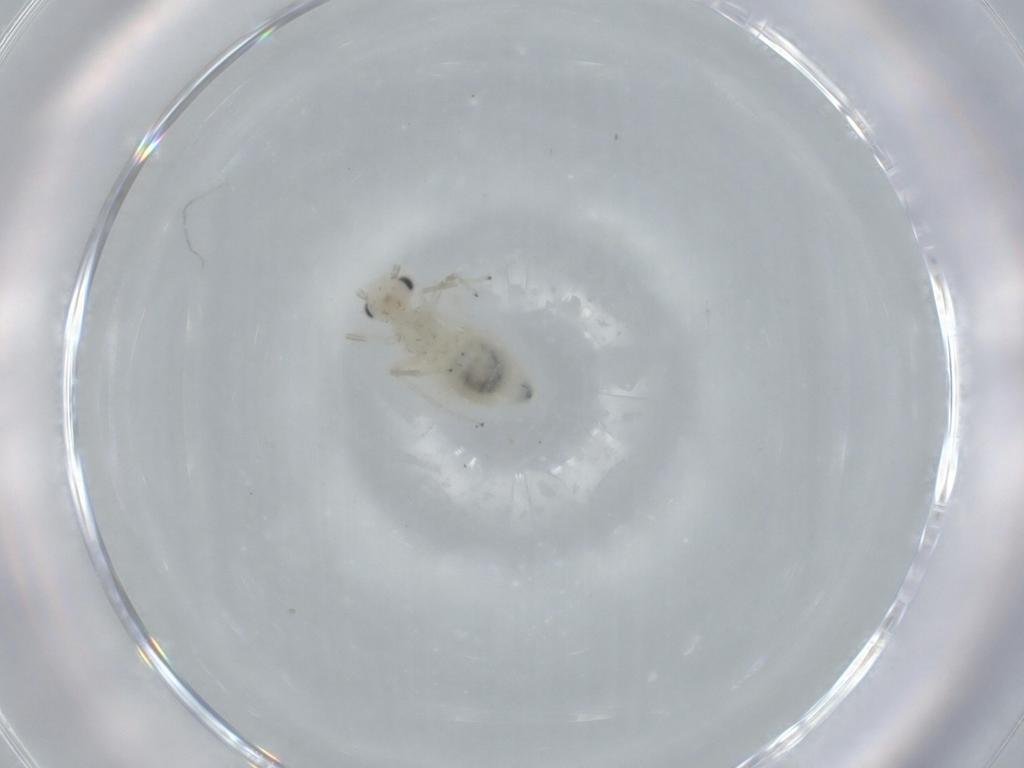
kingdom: Animalia
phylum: Arthropoda
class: Insecta
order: Psocodea
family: Caeciliusidae
